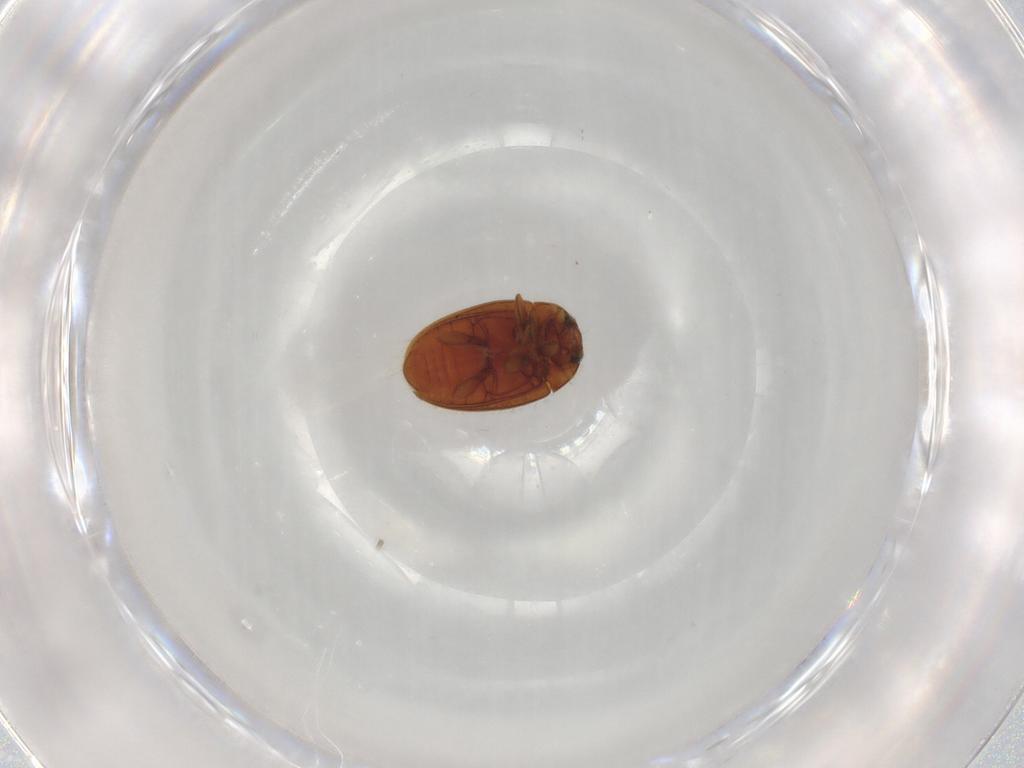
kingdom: Animalia
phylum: Arthropoda
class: Insecta
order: Coleoptera
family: Coccinellidae
